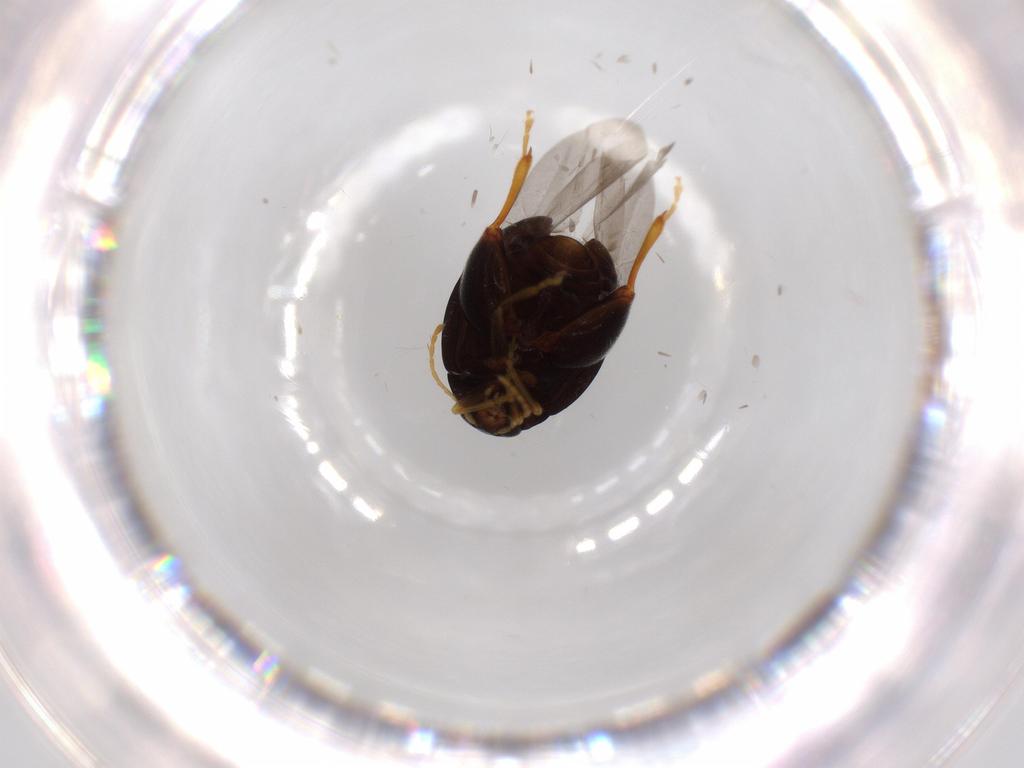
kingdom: Animalia
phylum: Arthropoda
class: Insecta
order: Coleoptera
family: Chrysomelidae
